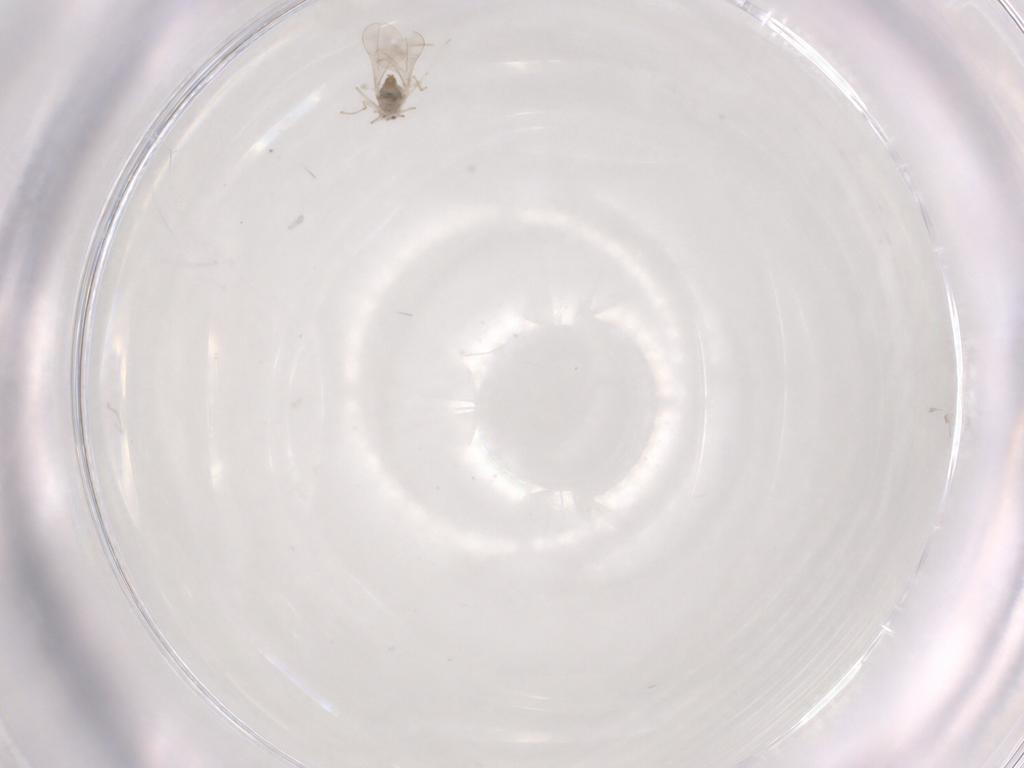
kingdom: Animalia
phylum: Arthropoda
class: Insecta
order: Diptera
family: Cecidomyiidae
